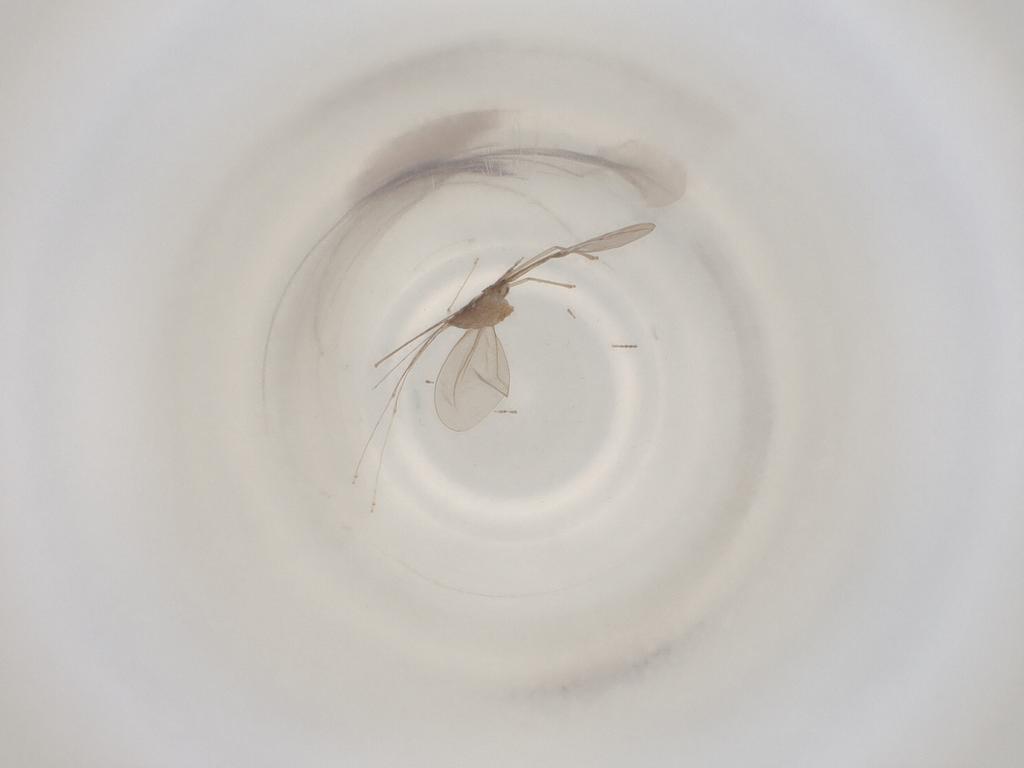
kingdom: Animalia
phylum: Arthropoda
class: Insecta
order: Diptera
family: Cecidomyiidae
